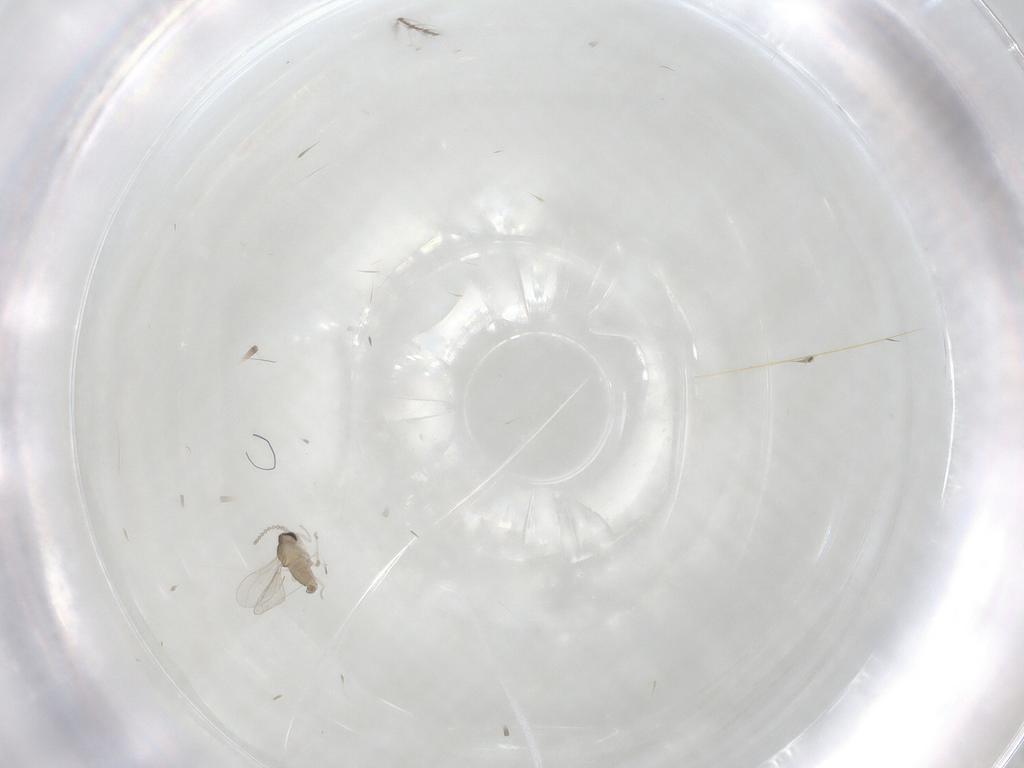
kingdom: Animalia
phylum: Arthropoda
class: Insecta
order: Diptera
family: Cecidomyiidae
